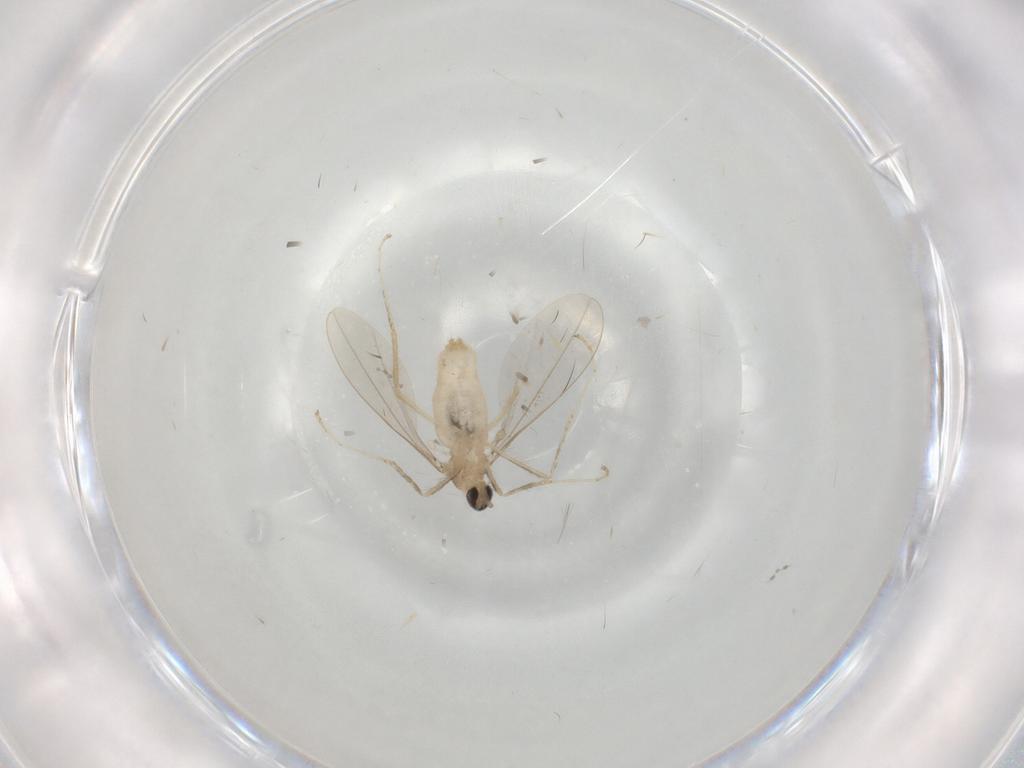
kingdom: Animalia
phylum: Arthropoda
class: Insecta
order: Diptera
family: Cecidomyiidae
